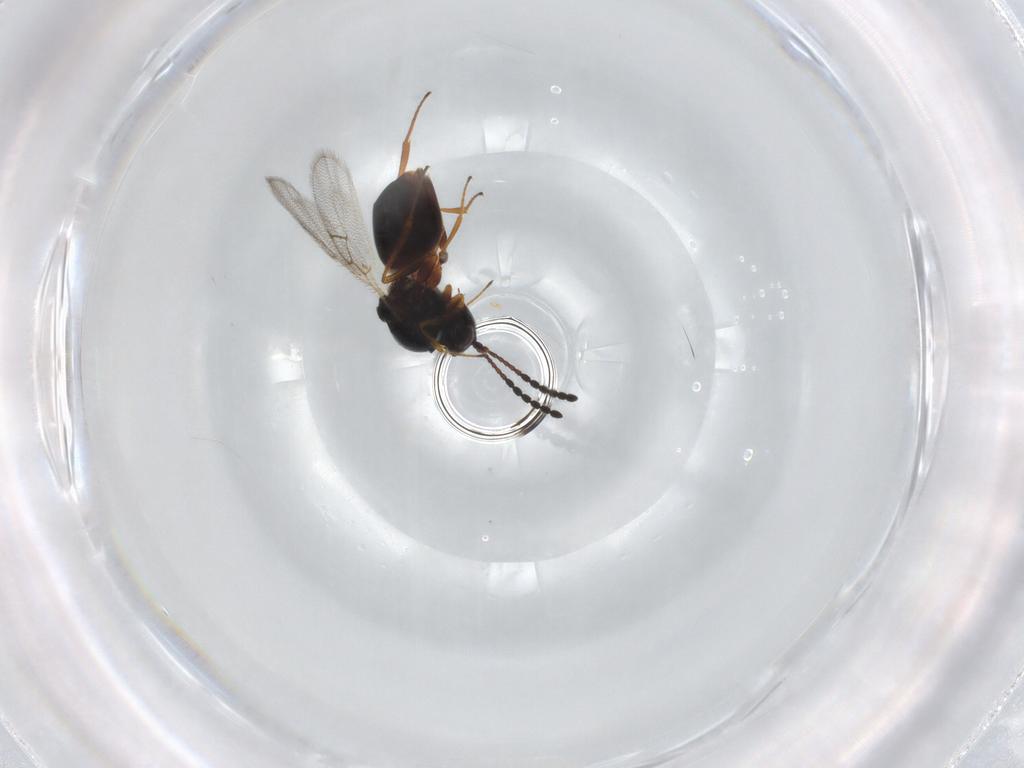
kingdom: Animalia
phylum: Arthropoda
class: Insecta
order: Hymenoptera
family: Figitidae
